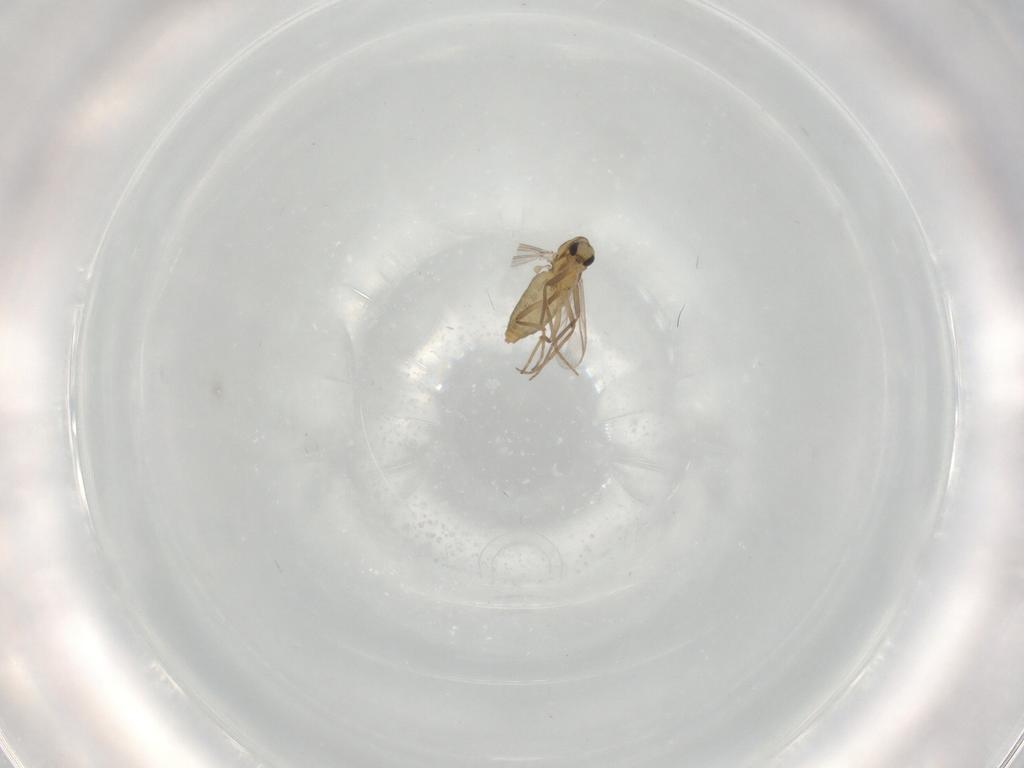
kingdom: Animalia
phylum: Arthropoda
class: Insecta
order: Diptera
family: Chironomidae
